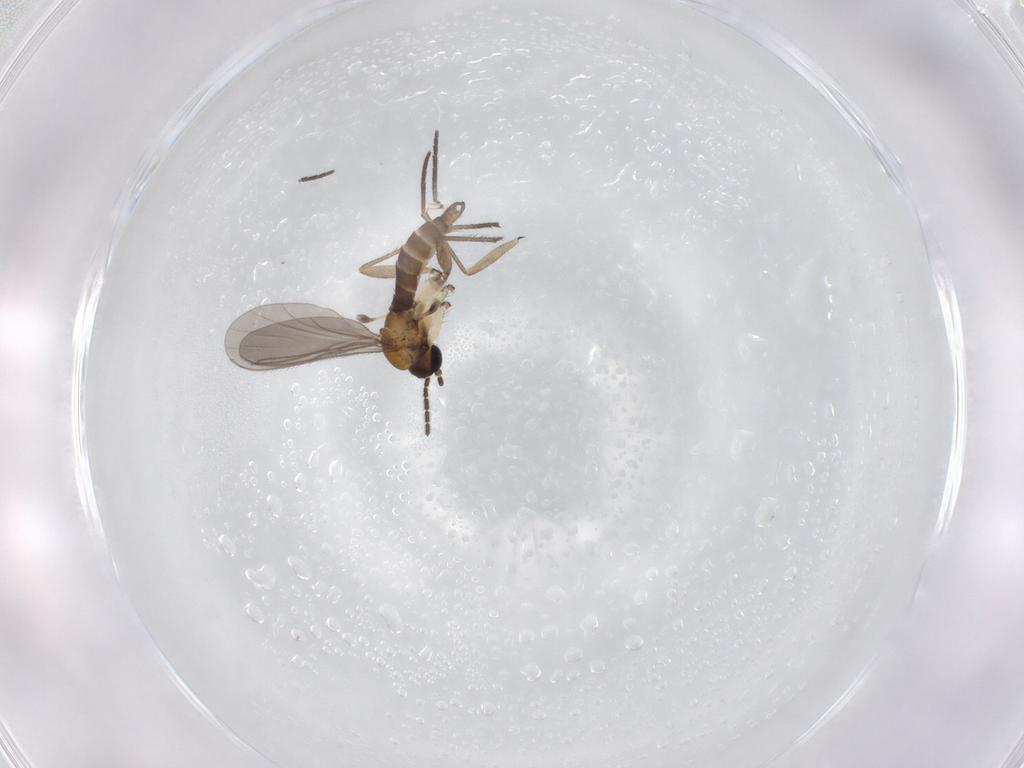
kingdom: Animalia
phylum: Arthropoda
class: Insecta
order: Diptera
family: Sciaridae
